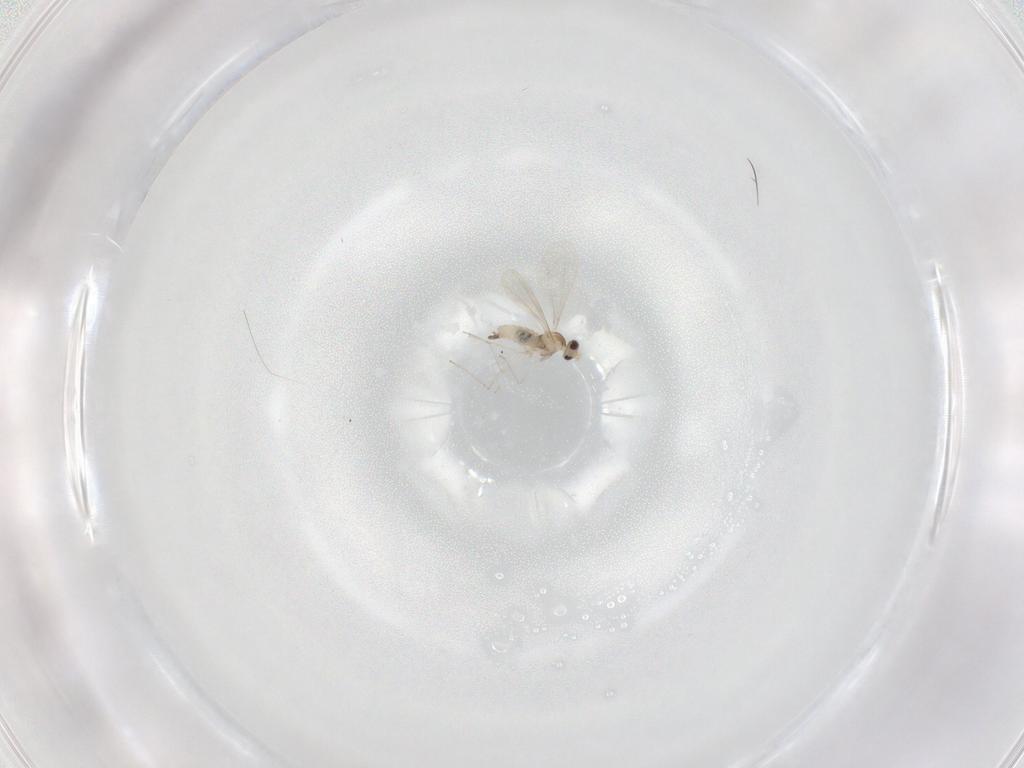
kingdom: Animalia
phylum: Arthropoda
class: Insecta
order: Diptera
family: Cecidomyiidae
